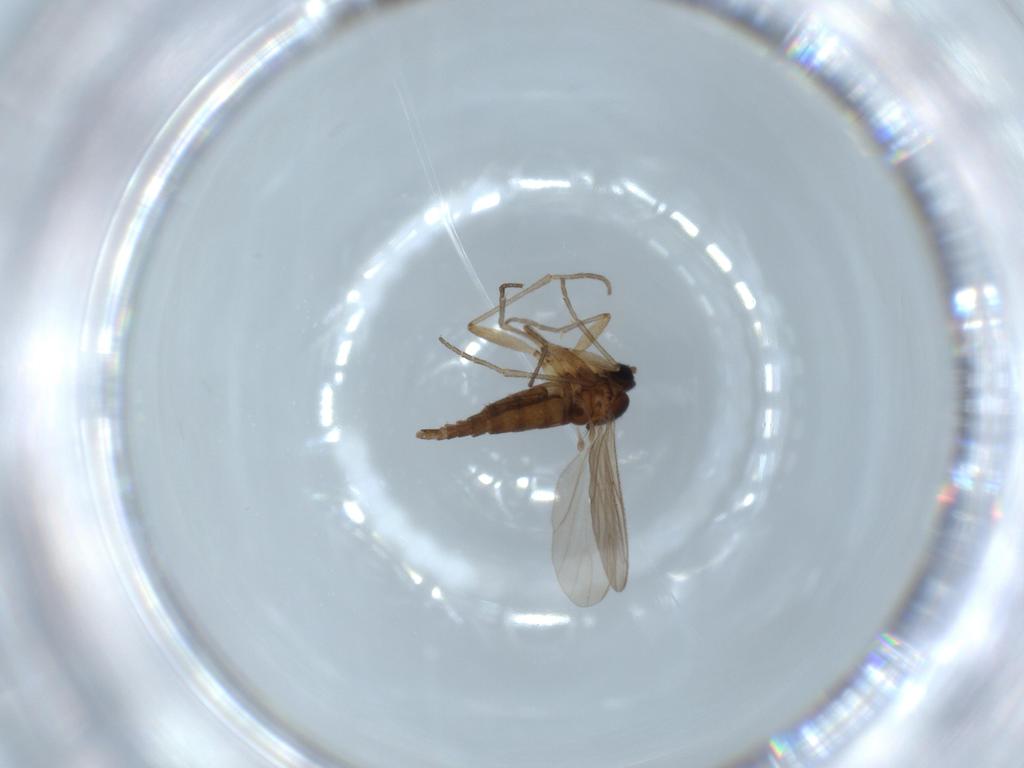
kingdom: Animalia
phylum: Arthropoda
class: Insecta
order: Diptera
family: Sciaridae
